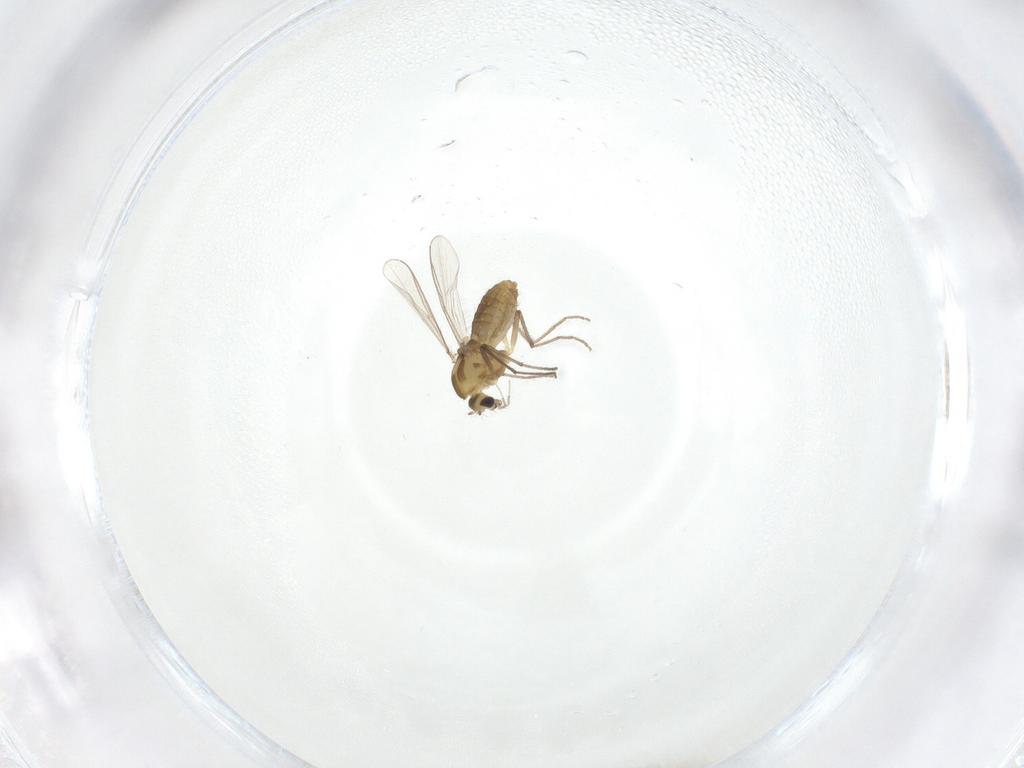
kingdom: Animalia
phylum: Arthropoda
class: Insecta
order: Diptera
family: Chironomidae
